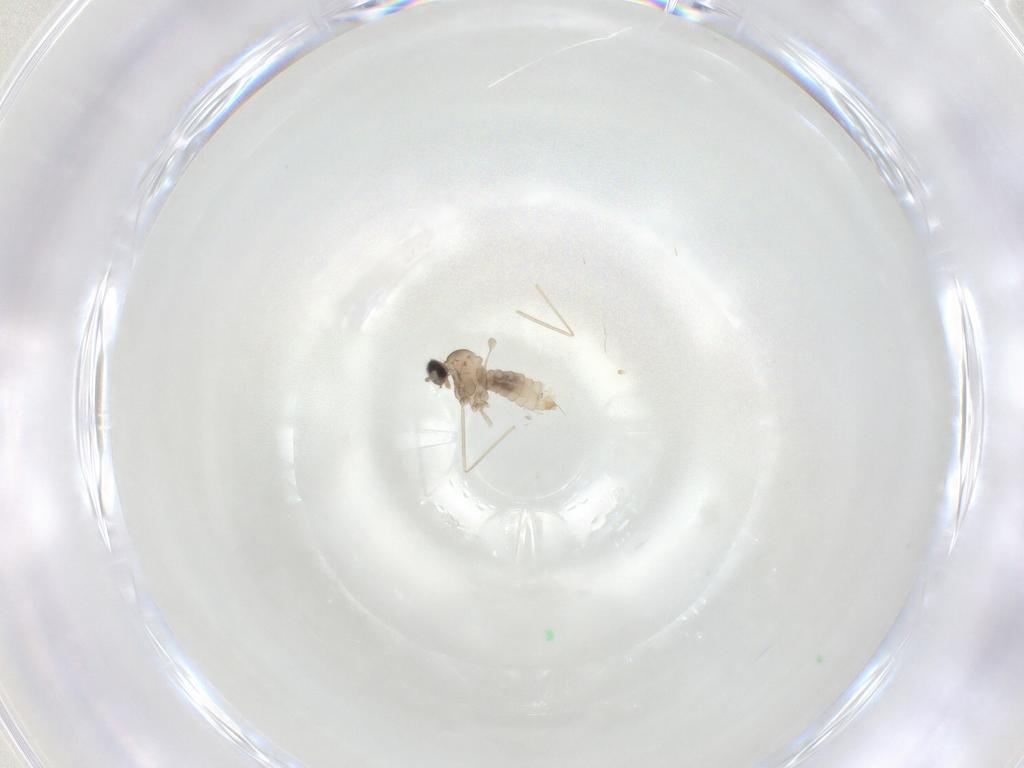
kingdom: Animalia
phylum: Arthropoda
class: Insecta
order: Diptera
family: Cecidomyiidae
